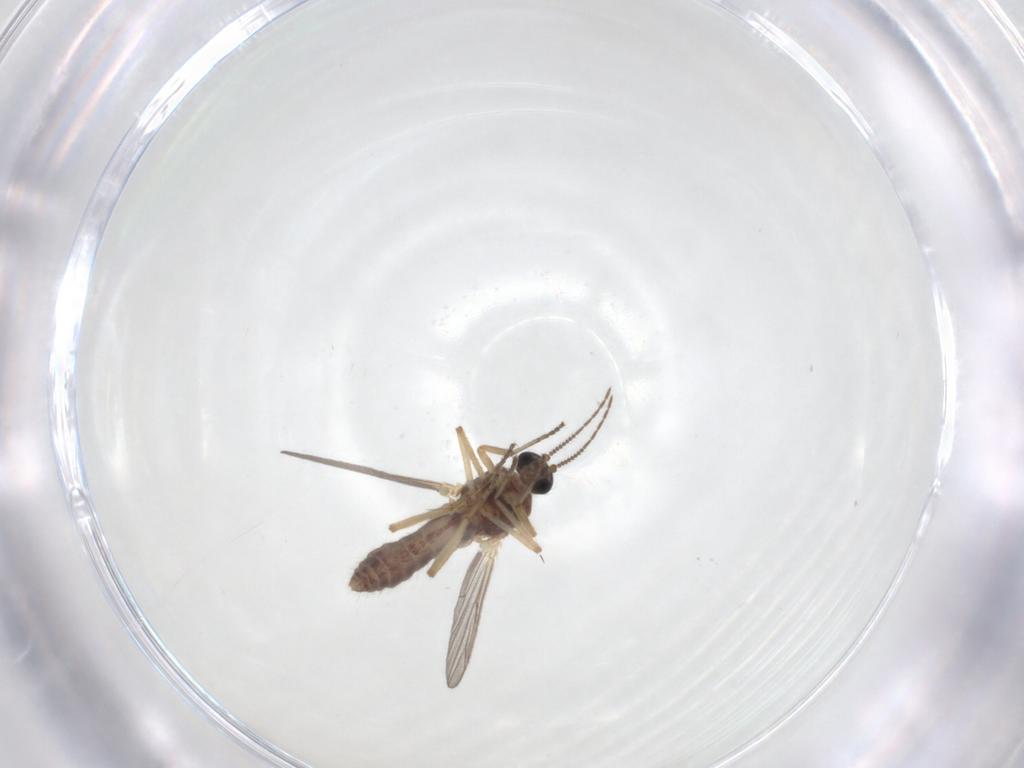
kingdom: Animalia
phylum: Arthropoda
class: Insecta
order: Diptera
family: Ceratopogonidae
